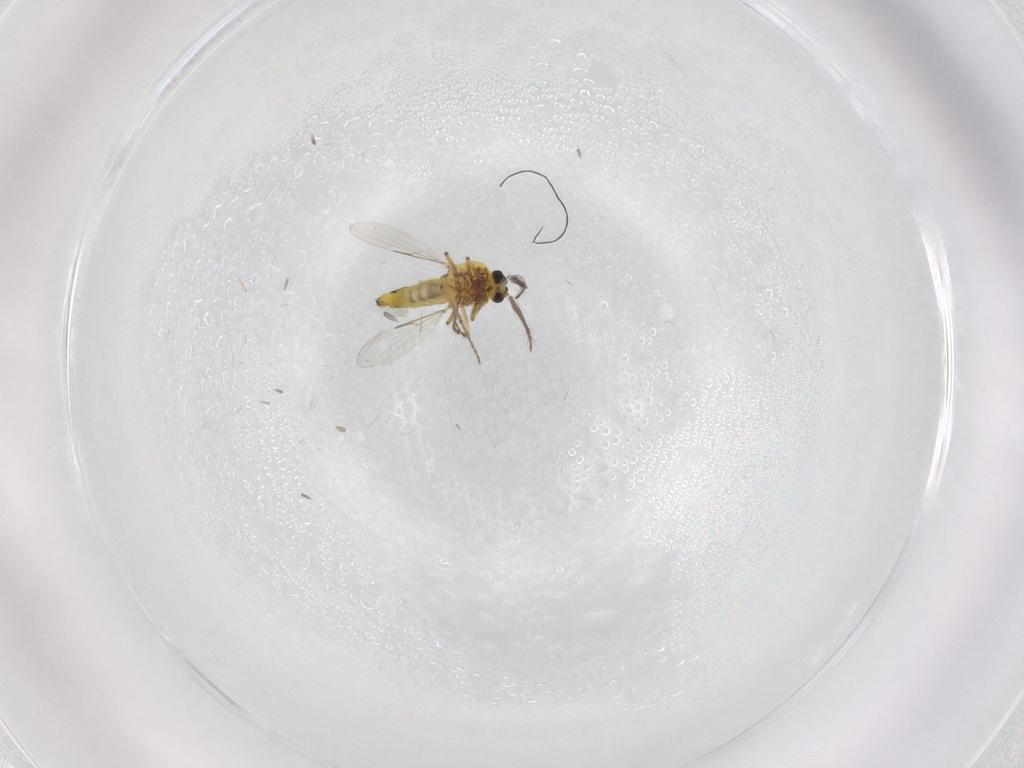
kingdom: Animalia
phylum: Arthropoda
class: Insecta
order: Diptera
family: Ceratopogonidae
